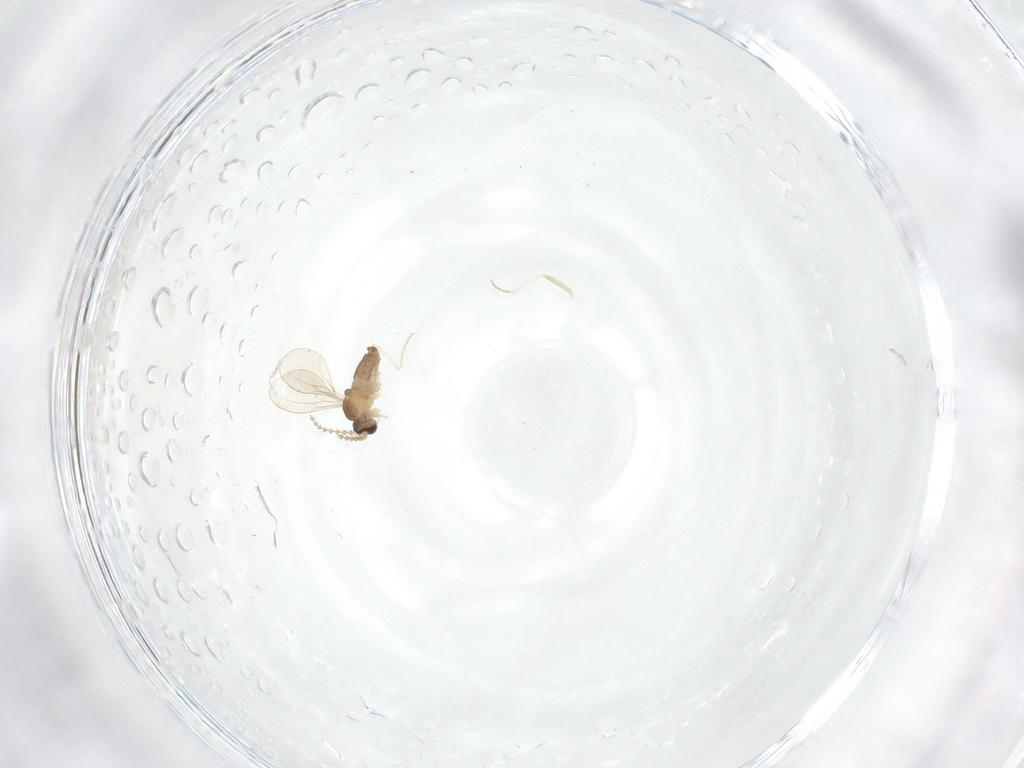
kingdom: Animalia
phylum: Arthropoda
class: Insecta
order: Diptera
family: Cecidomyiidae
